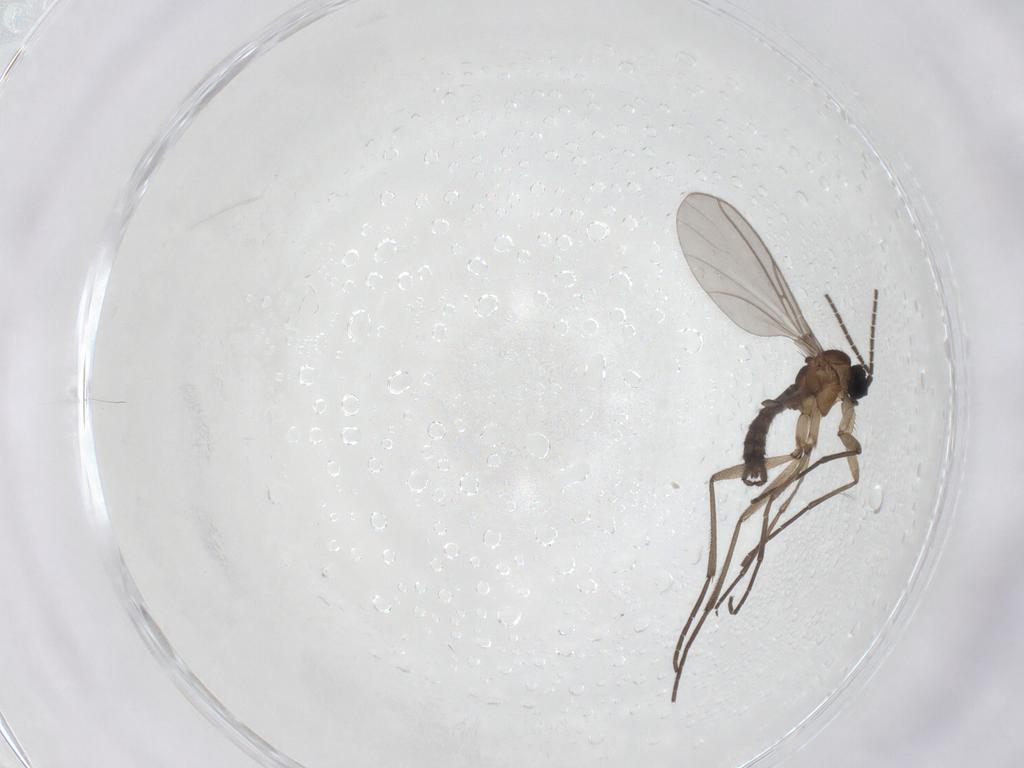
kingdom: Animalia
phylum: Arthropoda
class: Insecta
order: Diptera
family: Sciaridae
